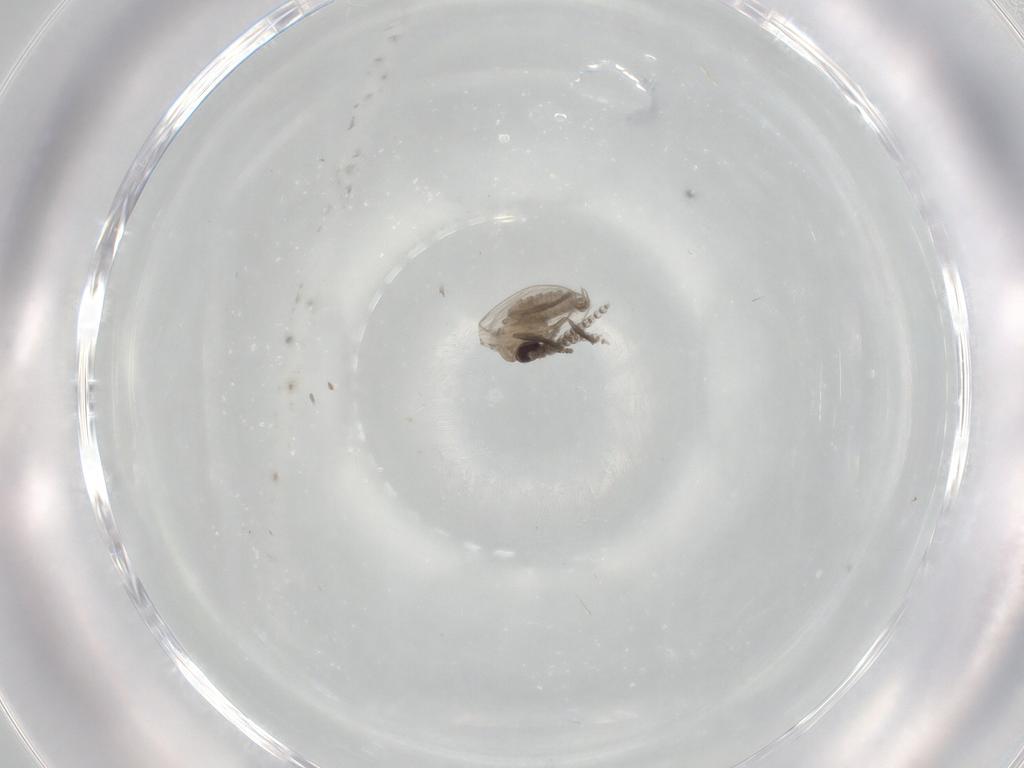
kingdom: Animalia
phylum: Arthropoda
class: Insecta
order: Diptera
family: Psychodidae
